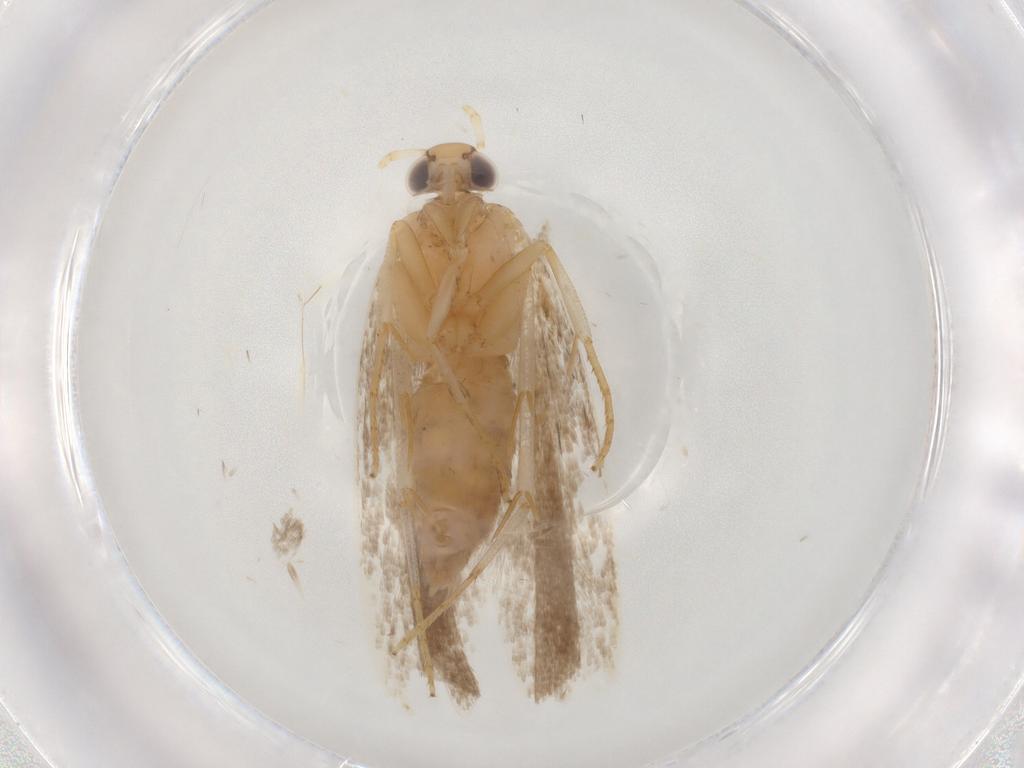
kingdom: Animalia
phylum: Arthropoda
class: Insecta
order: Lepidoptera
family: Gelechiidae
